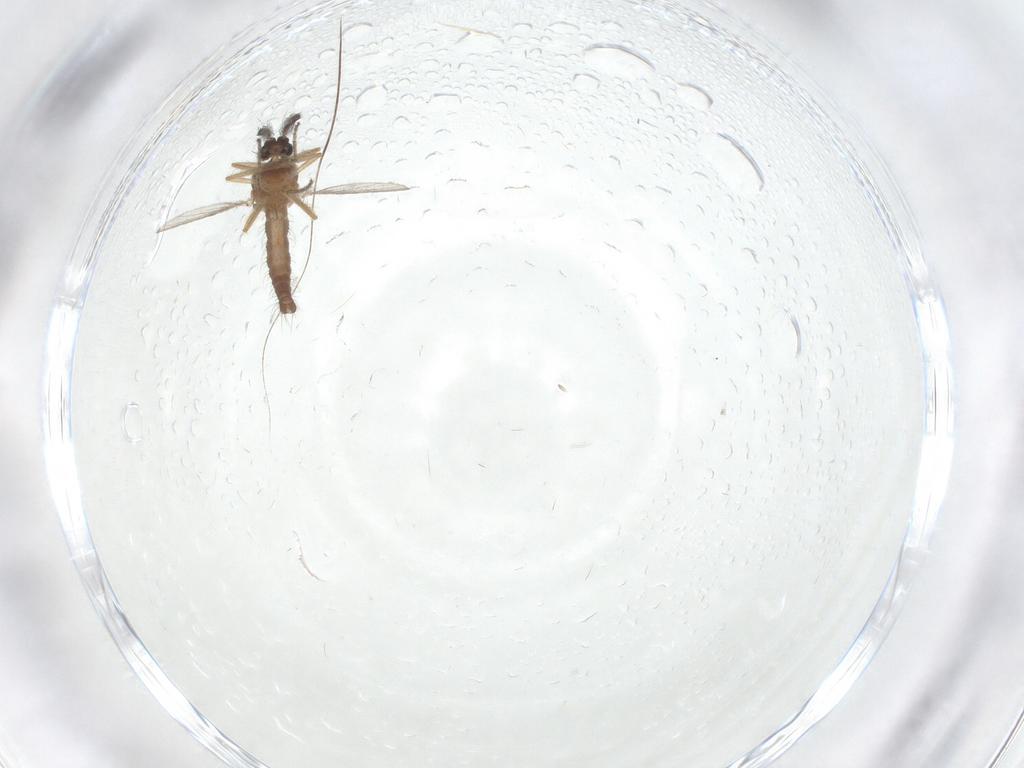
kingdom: Animalia
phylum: Arthropoda
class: Insecta
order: Diptera
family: Ceratopogonidae
